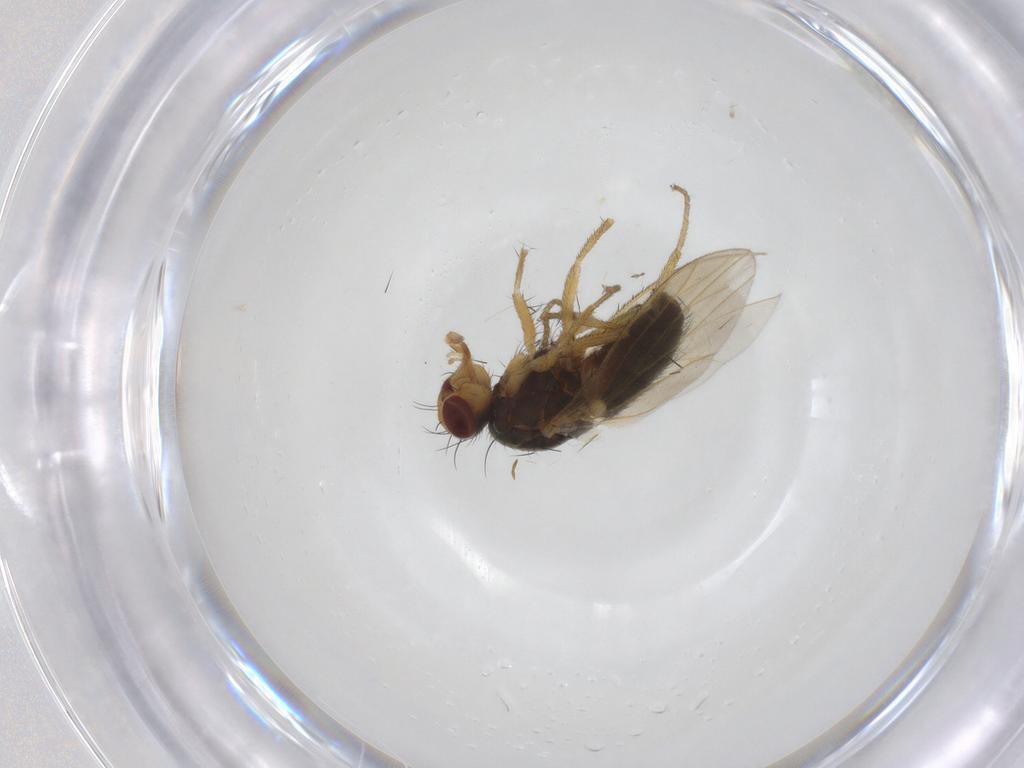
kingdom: Animalia
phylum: Arthropoda
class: Insecta
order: Diptera
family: Heleomyzidae
